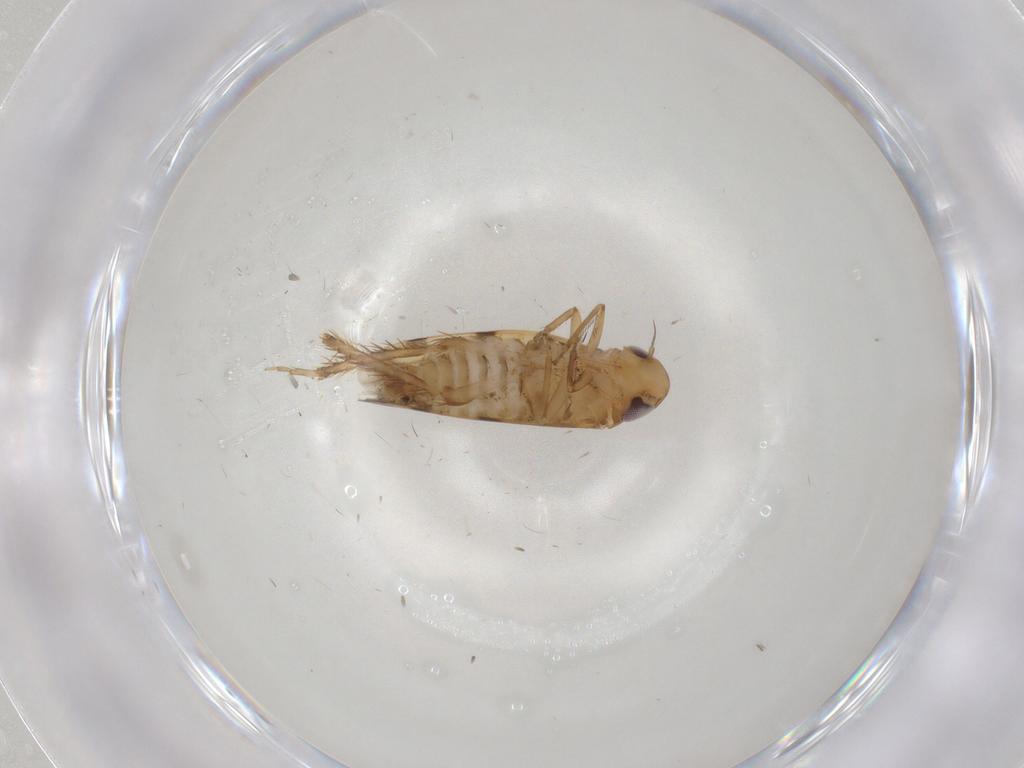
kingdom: Animalia
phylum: Arthropoda
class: Insecta
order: Hemiptera
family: Cicadellidae
